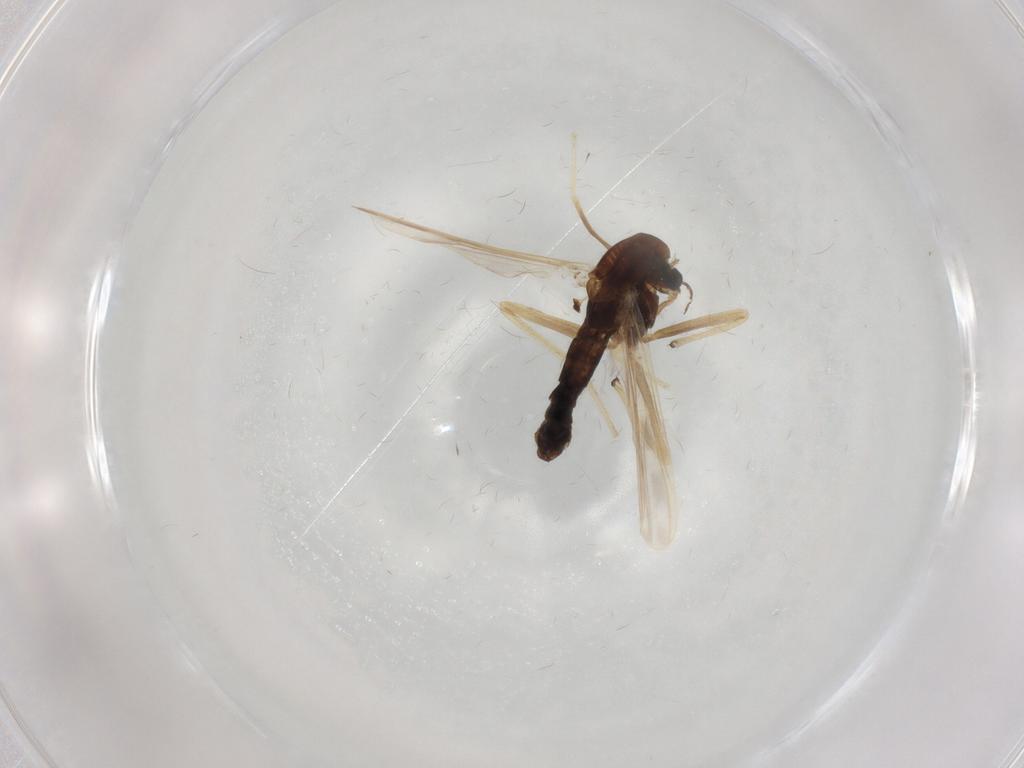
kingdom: Animalia
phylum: Arthropoda
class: Insecta
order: Diptera
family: Chironomidae
